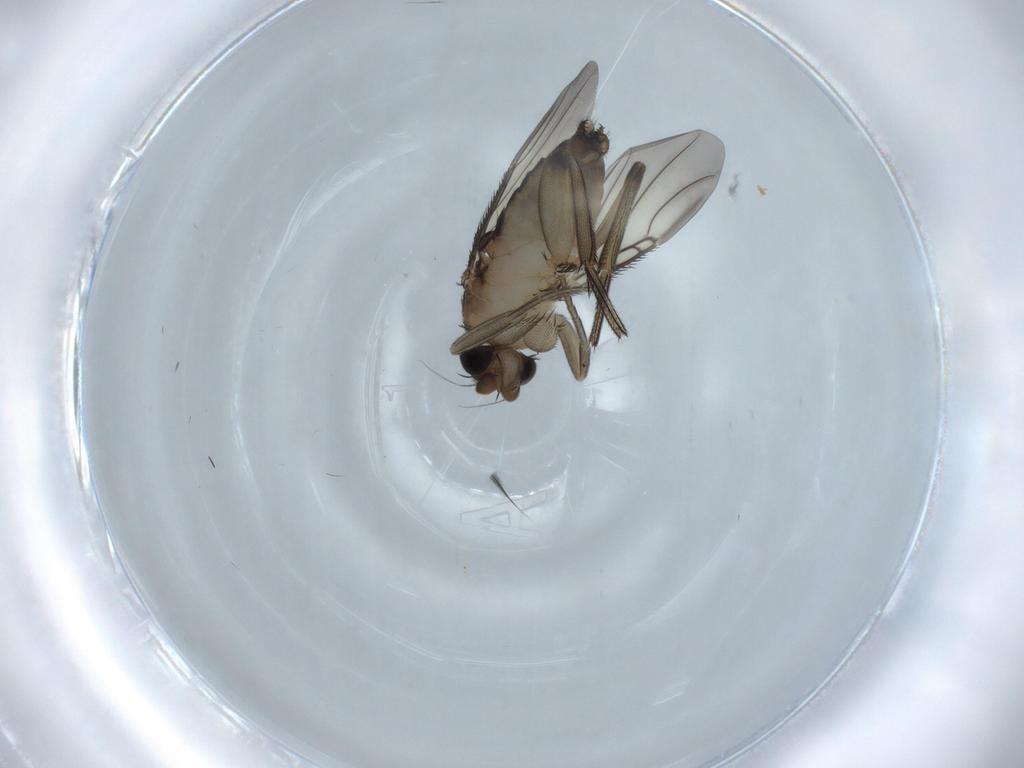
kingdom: Animalia
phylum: Arthropoda
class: Insecta
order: Diptera
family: Phoridae
